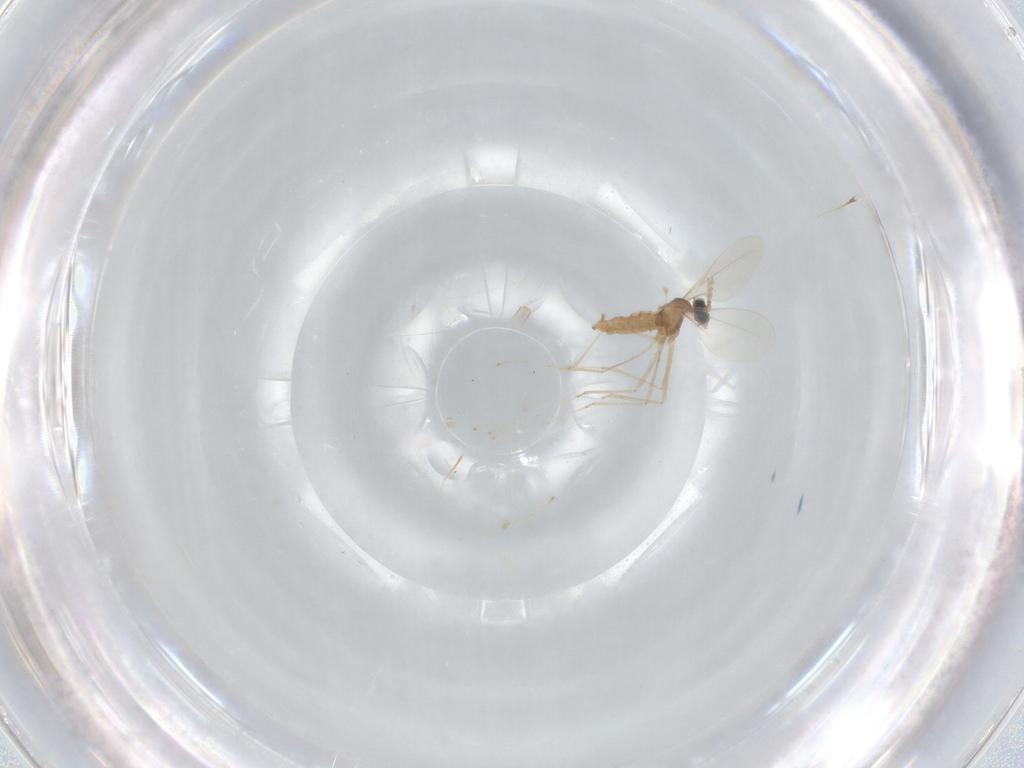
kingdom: Animalia
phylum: Arthropoda
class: Insecta
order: Diptera
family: Cecidomyiidae
